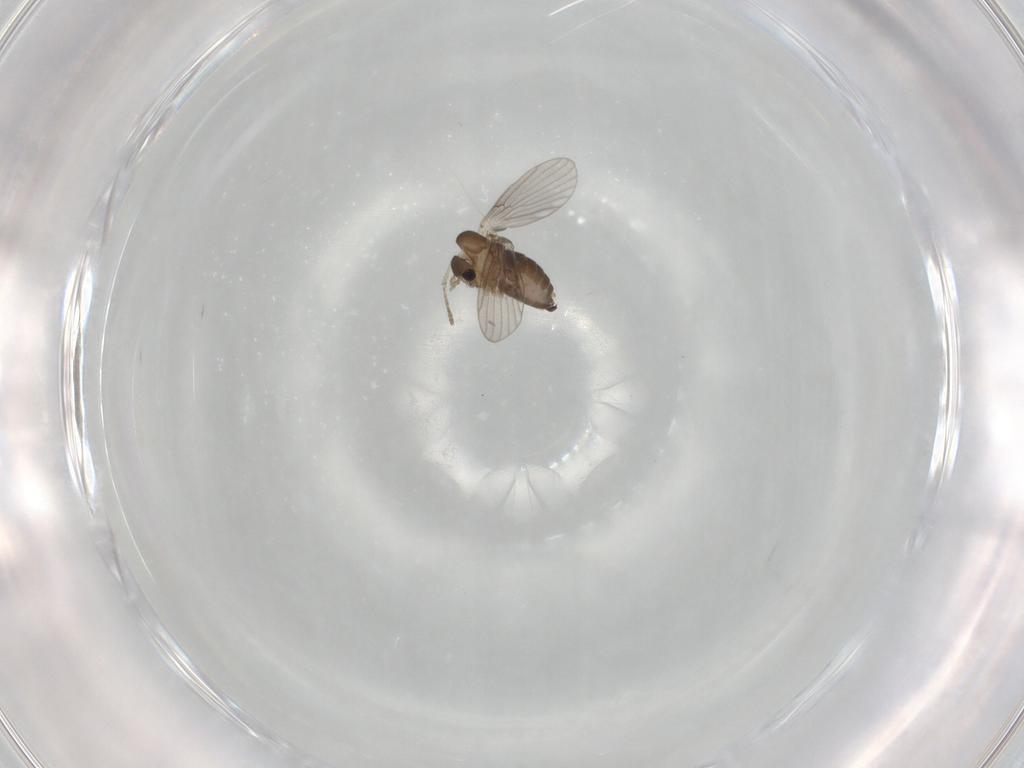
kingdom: Animalia
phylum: Arthropoda
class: Insecta
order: Diptera
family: Psychodidae
